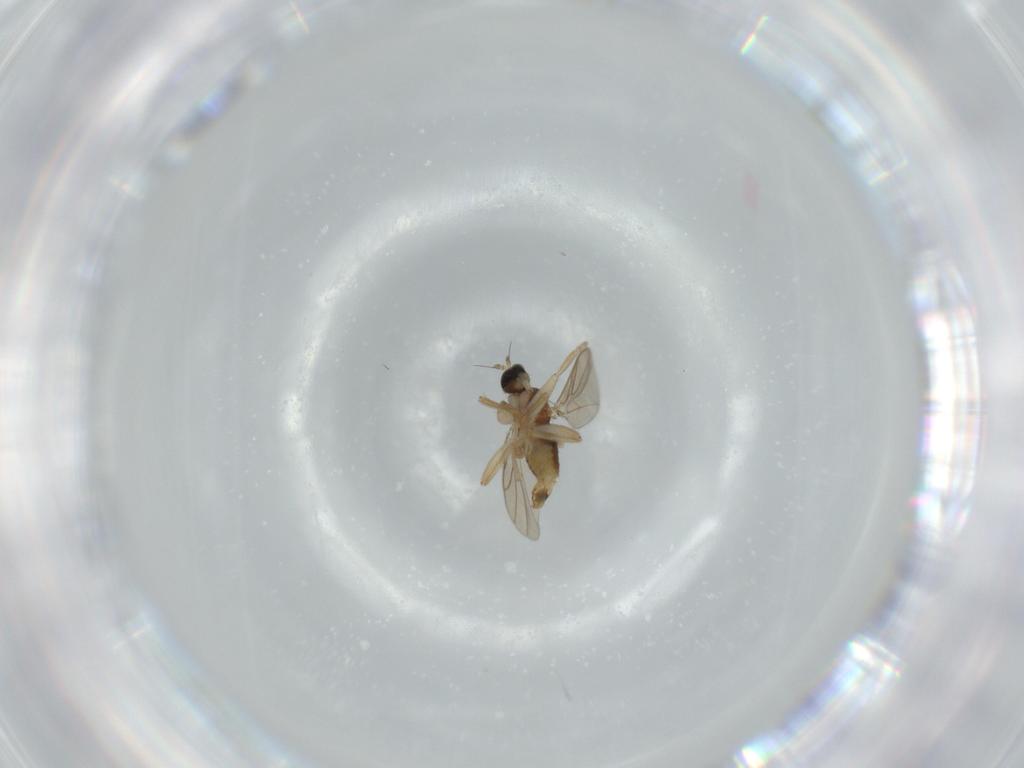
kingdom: Animalia
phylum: Arthropoda
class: Insecta
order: Diptera
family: Hybotidae
